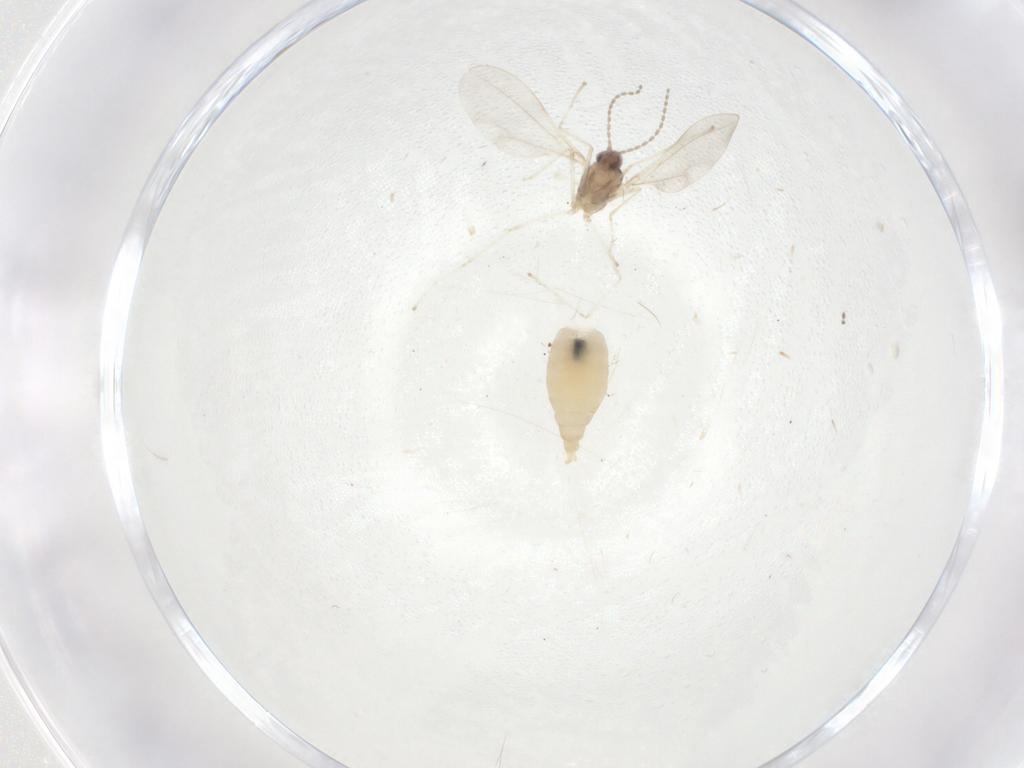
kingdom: Animalia
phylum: Arthropoda
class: Insecta
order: Diptera
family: Cecidomyiidae
